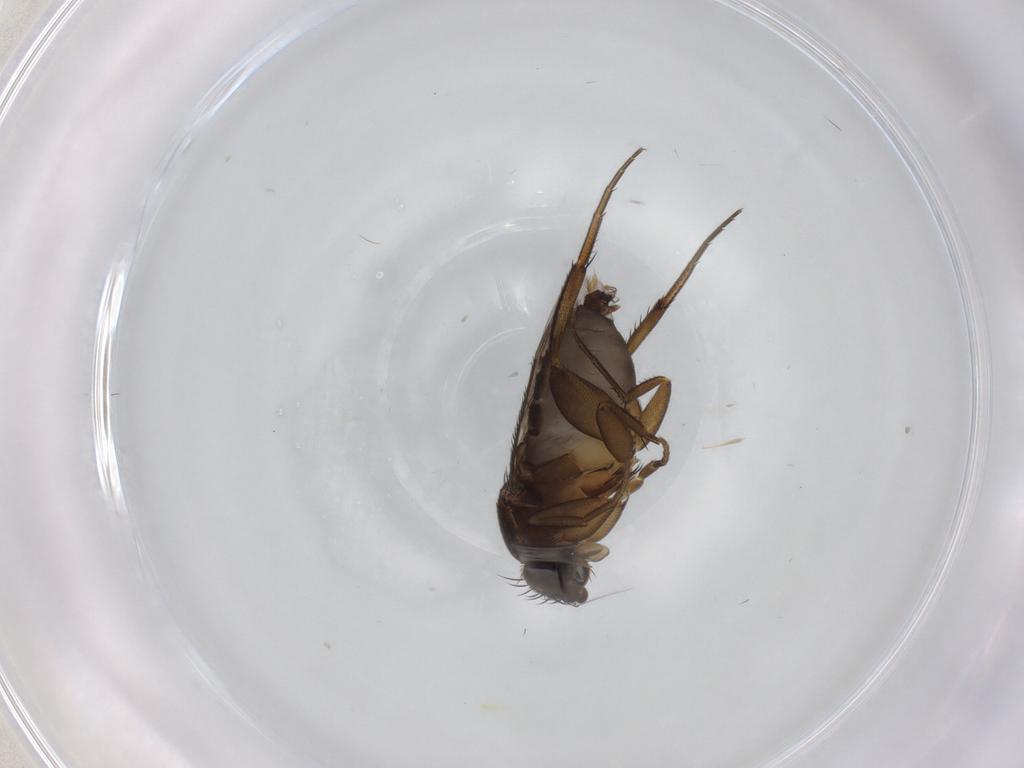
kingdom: Animalia
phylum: Arthropoda
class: Insecta
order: Diptera
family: Phoridae
